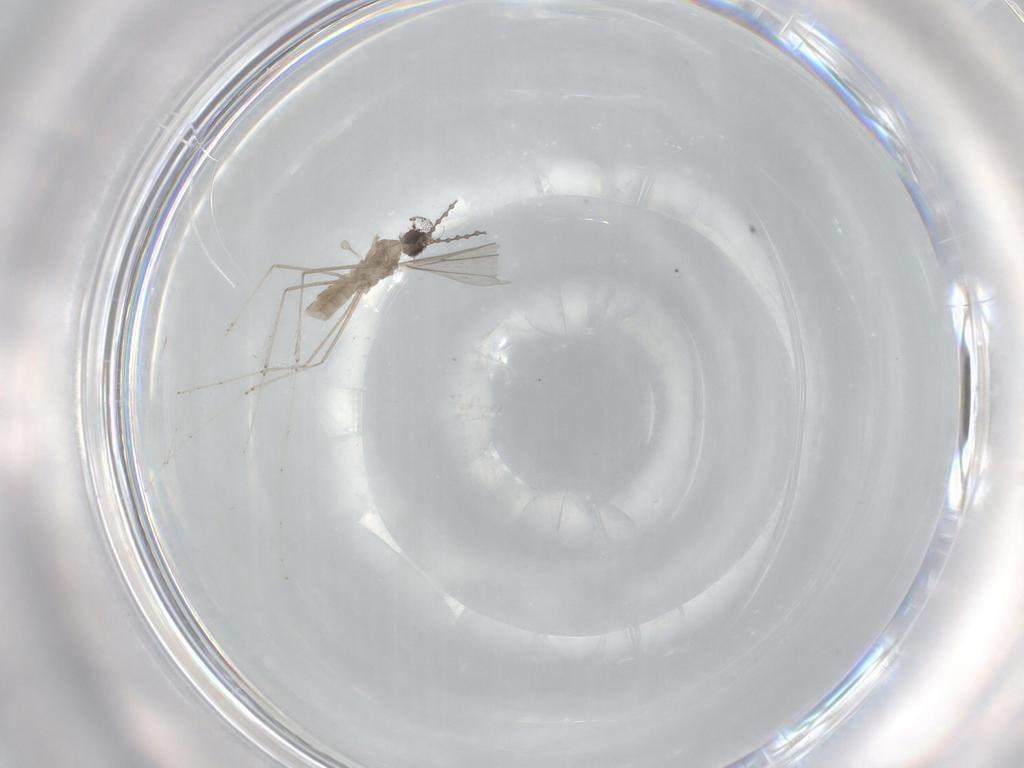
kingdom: Animalia
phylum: Arthropoda
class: Insecta
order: Diptera
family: Cecidomyiidae
